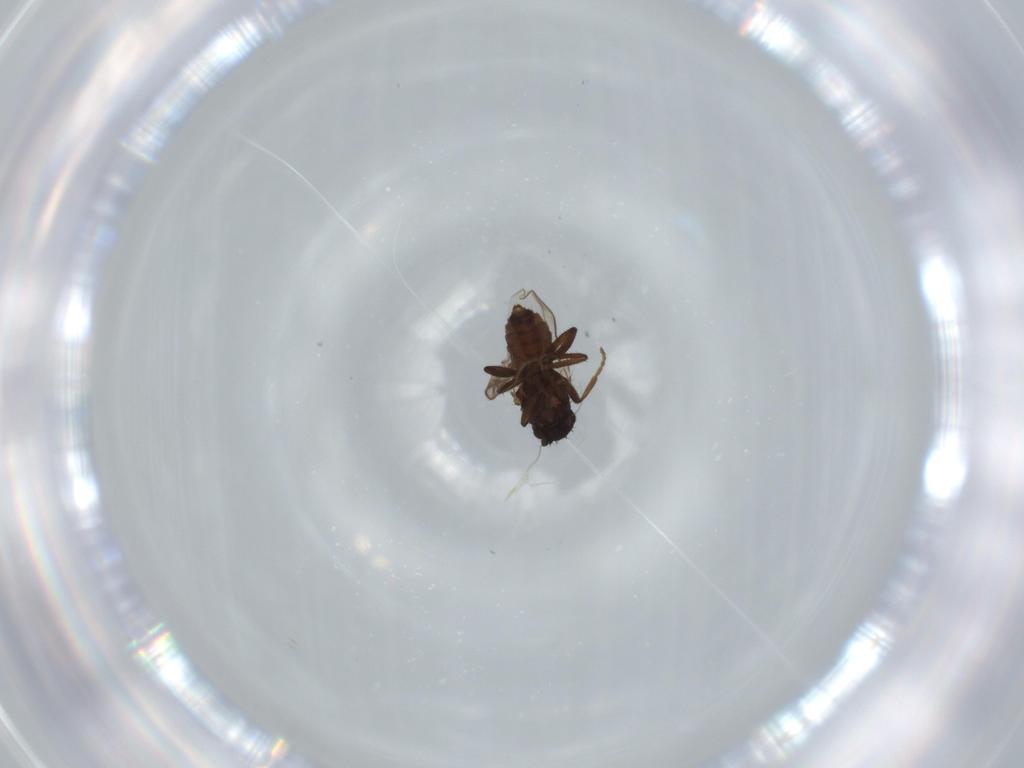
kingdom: Animalia
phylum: Arthropoda
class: Insecta
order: Diptera
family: Sphaeroceridae
